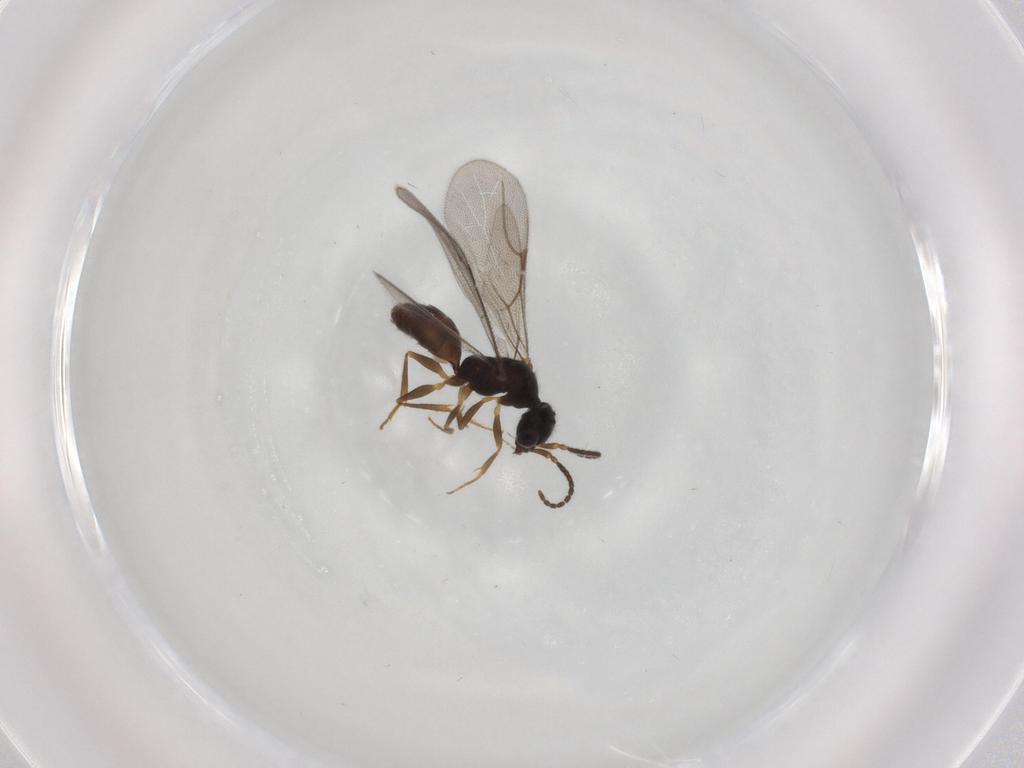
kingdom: Animalia
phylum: Arthropoda
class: Insecta
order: Hymenoptera
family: Bethylidae
